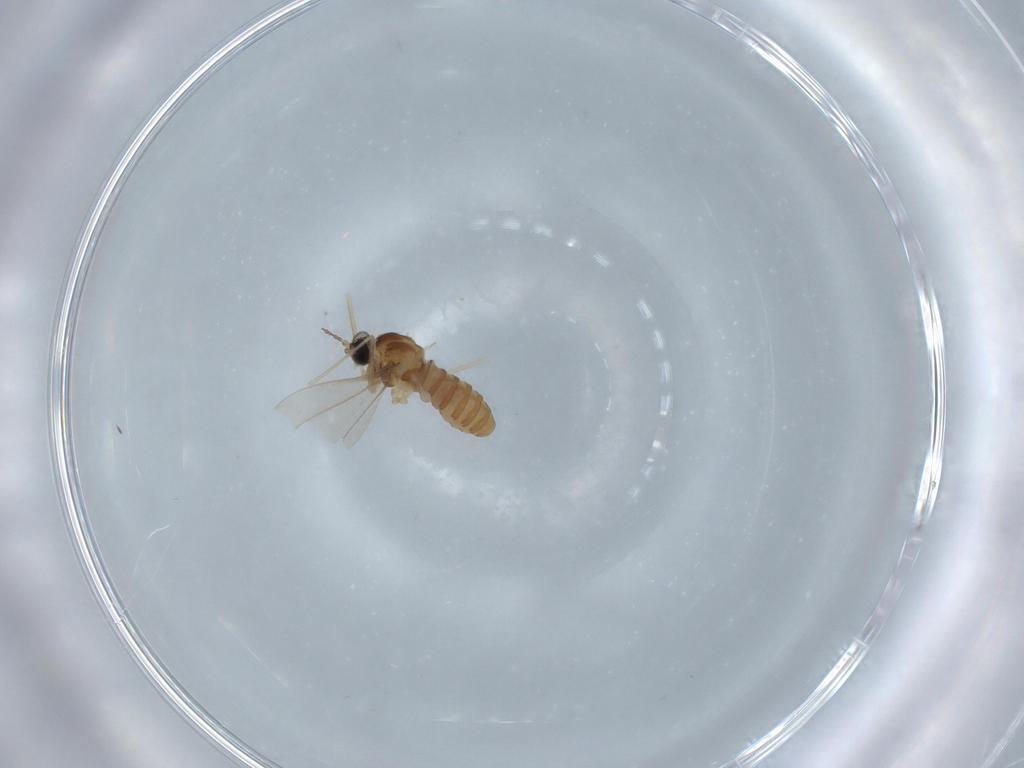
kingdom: Animalia
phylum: Arthropoda
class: Insecta
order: Diptera
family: Cecidomyiidae
